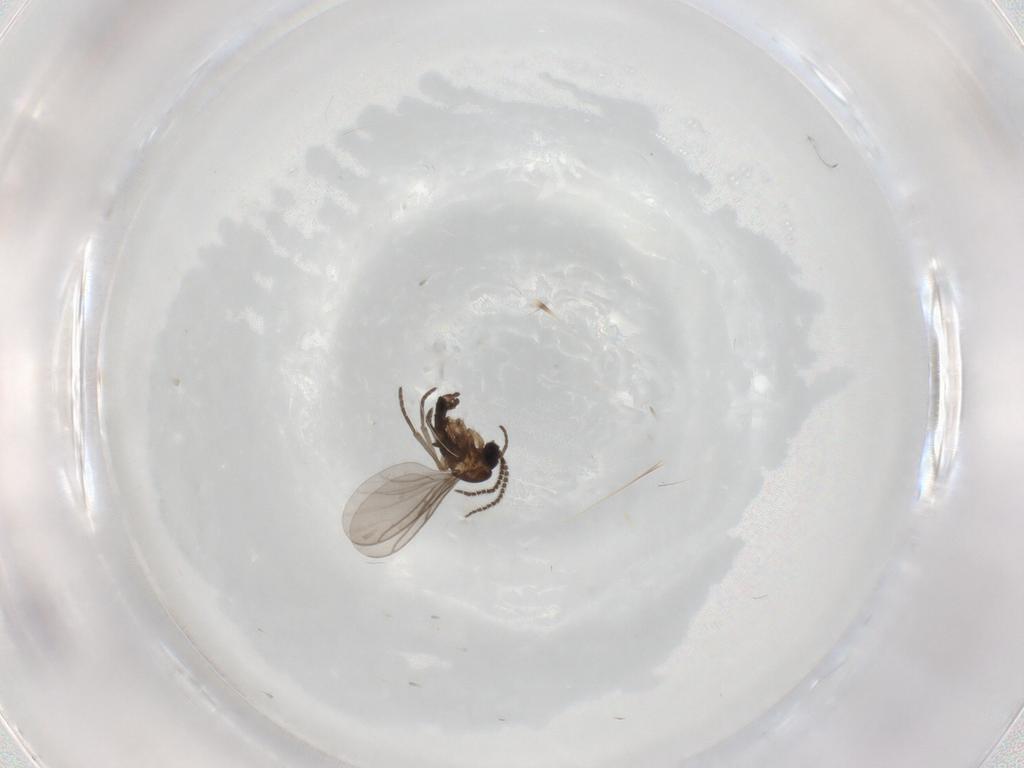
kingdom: Animalia
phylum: Arthropoda
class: Insecta
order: Diptera
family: Sciaridae
